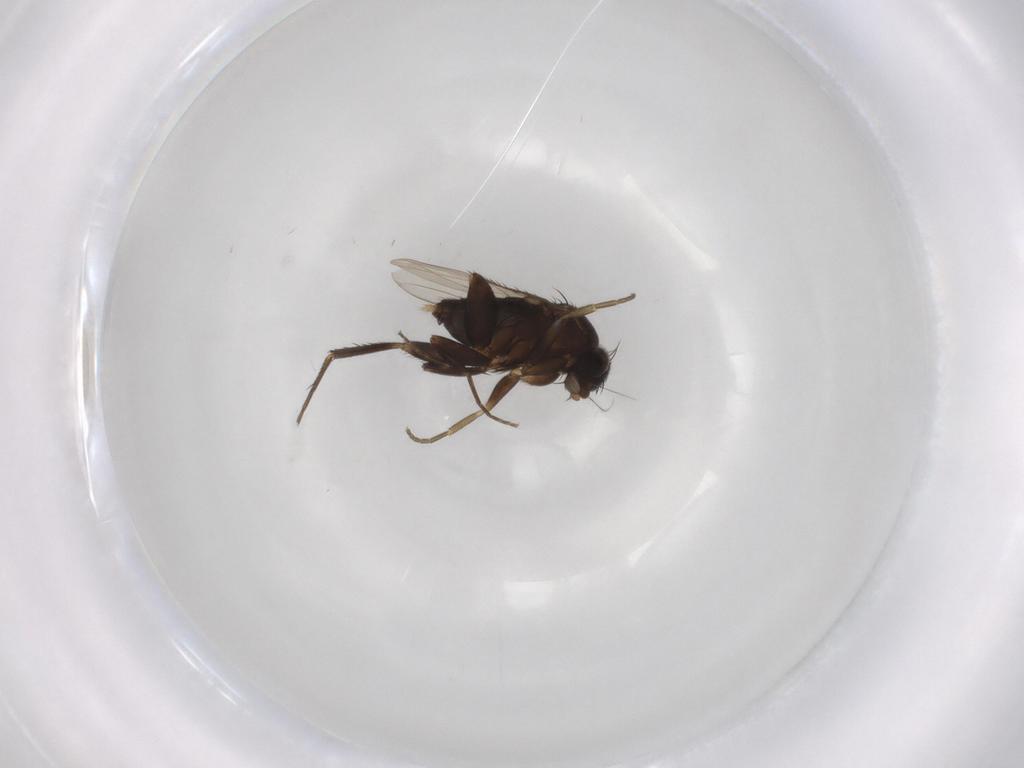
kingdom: Animalia
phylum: Arthropoda
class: Insecta
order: Diptera
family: Phoridae
